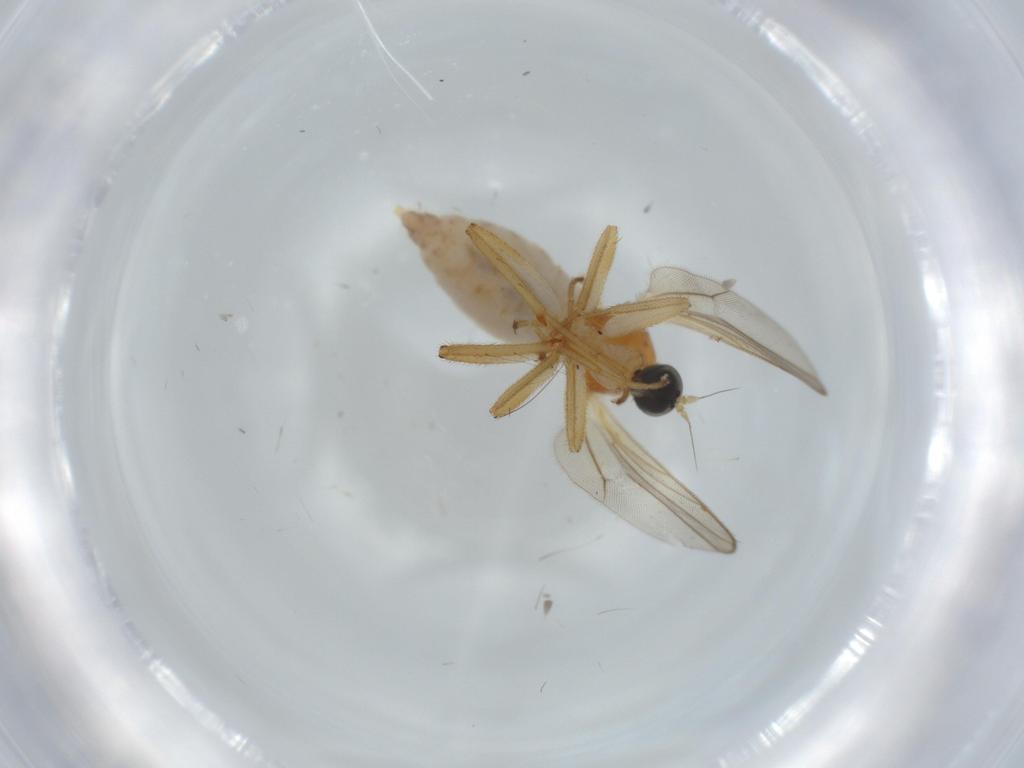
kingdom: Animalia
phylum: Arthropoda
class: Insecta
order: Diptera
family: Hybotidae
